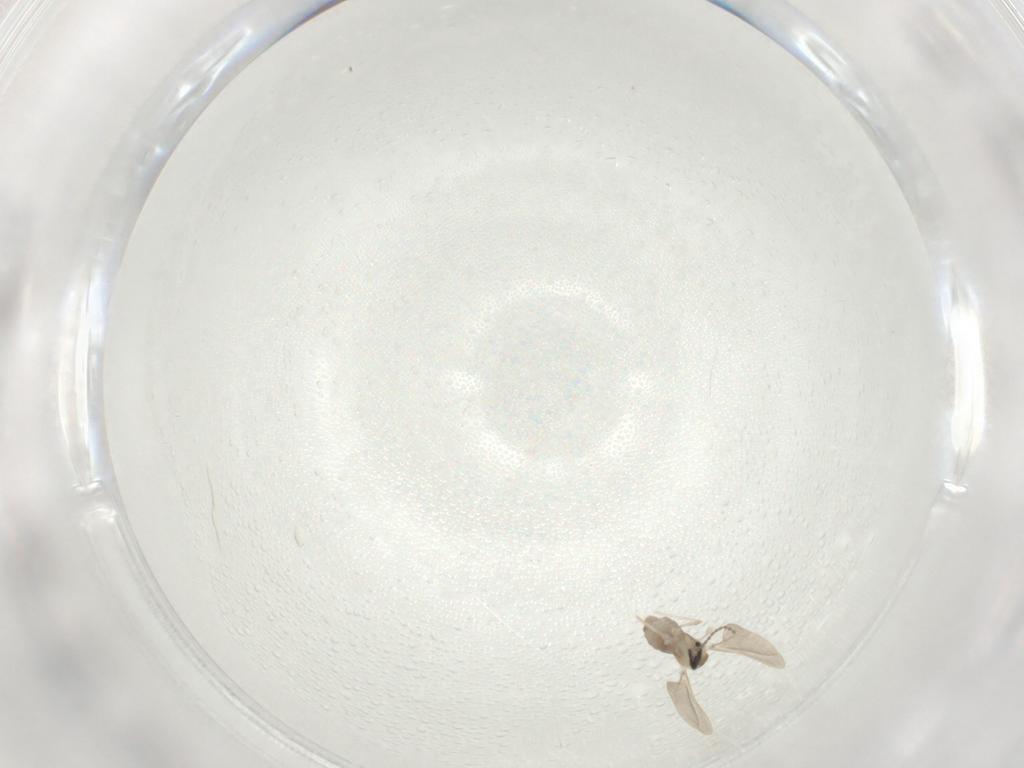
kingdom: Animalia
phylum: Arthropoda
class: Insecta
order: Diptera
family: Cecidomyiidae
